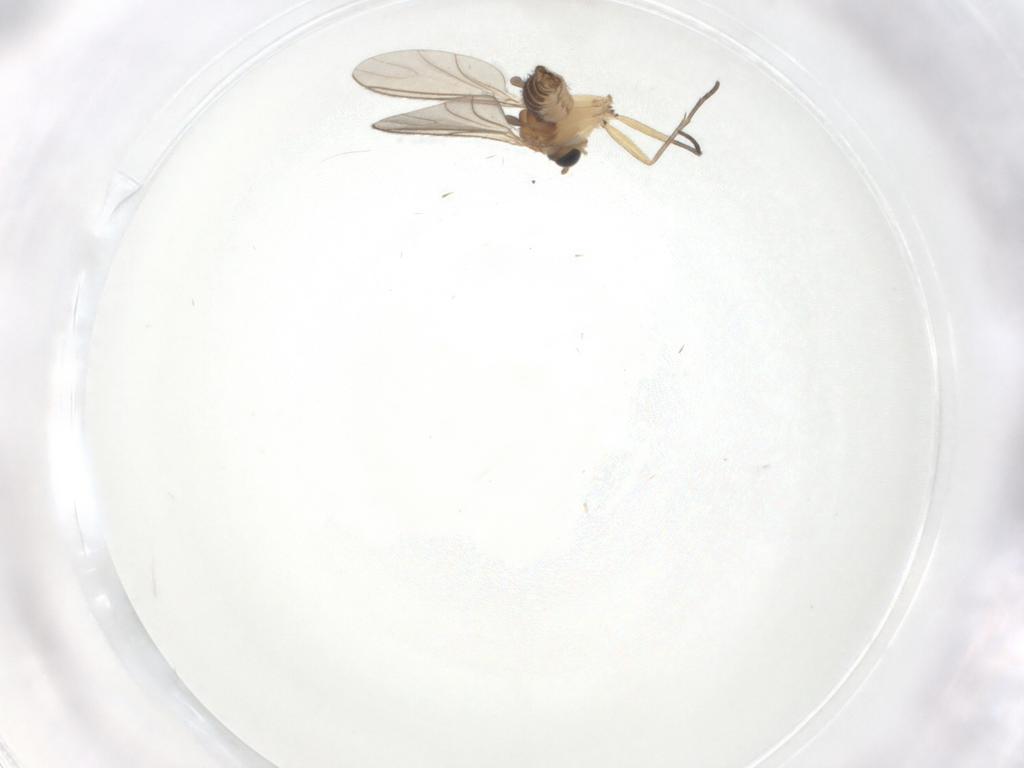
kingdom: Animalia
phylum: Arthropoda
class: Insecta
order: Diptera
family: Sciaridae
